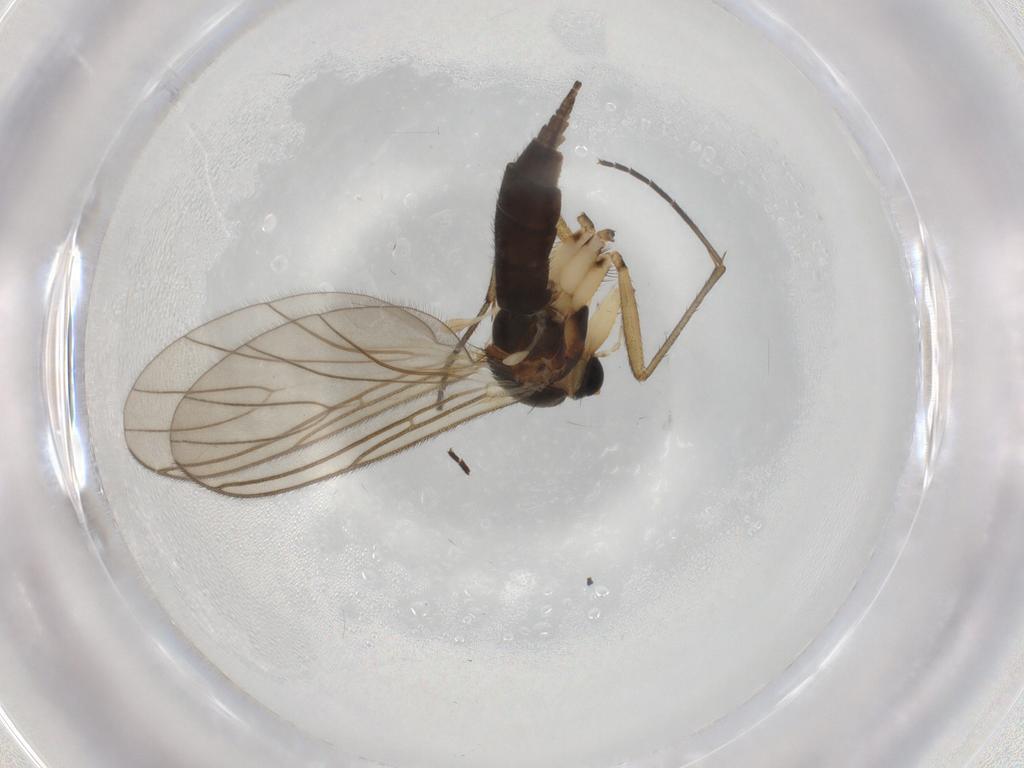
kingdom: Animalia
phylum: Arthropoda
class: Insecta
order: Diptera
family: Sciaridae
